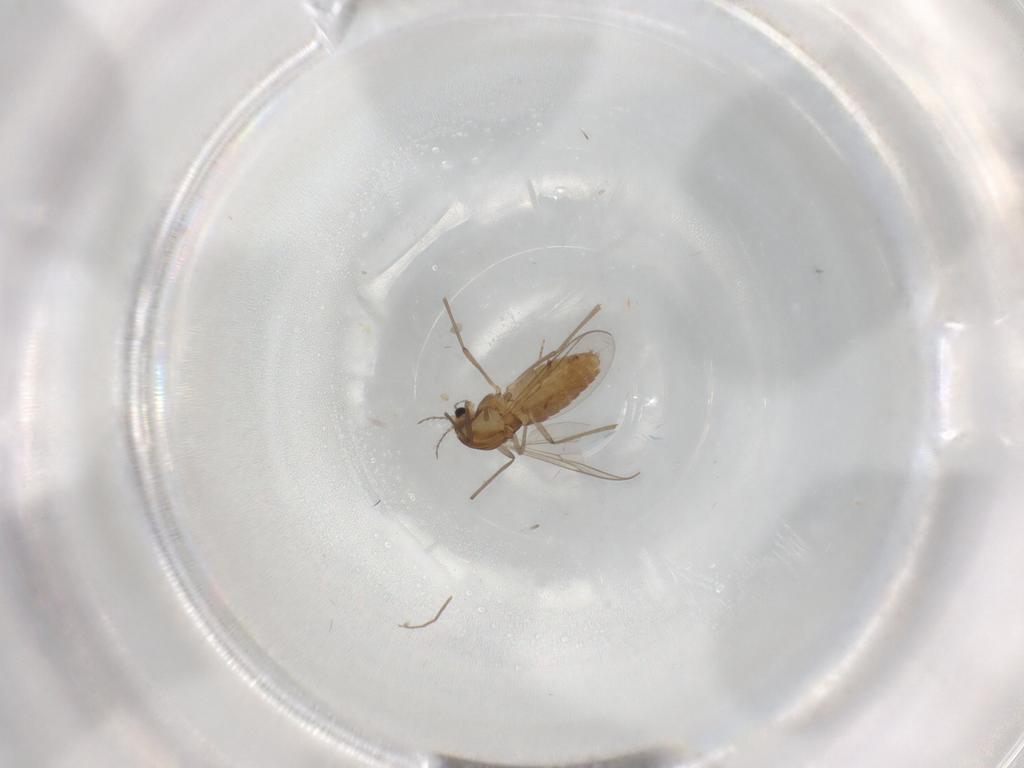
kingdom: Animalia
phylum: Arthropoda
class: Insecta
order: Diptera
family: Chironomidae
